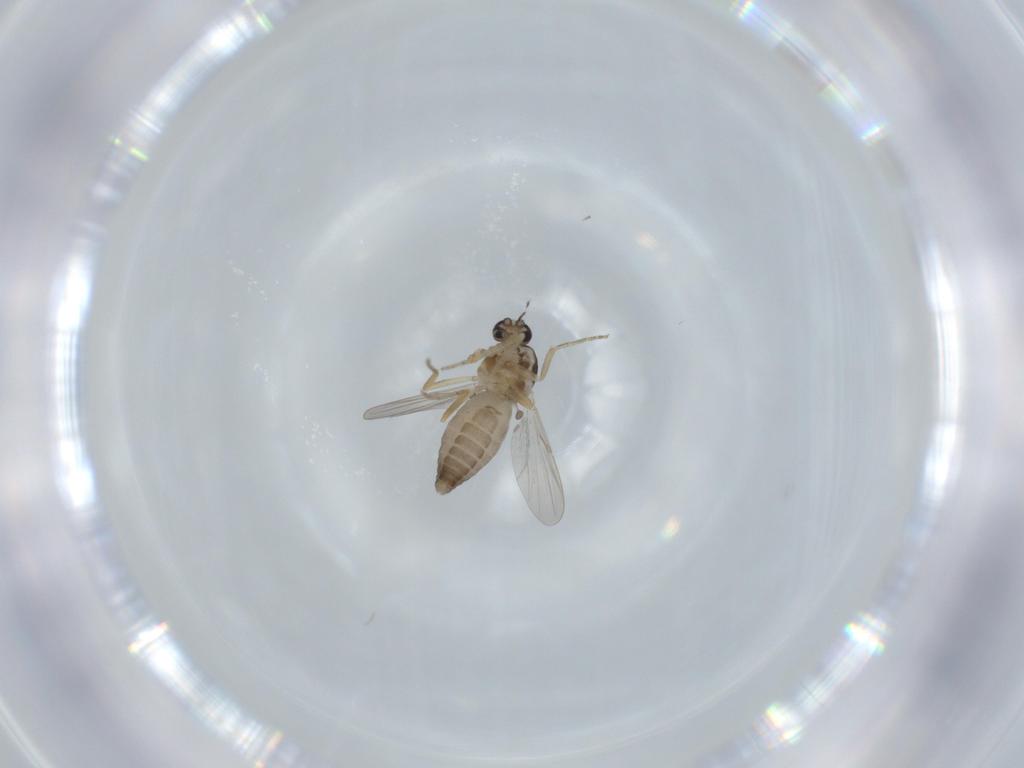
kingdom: Animalia
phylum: Arthropoda
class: Insecta
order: Diptera
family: Ceratopogonidae
